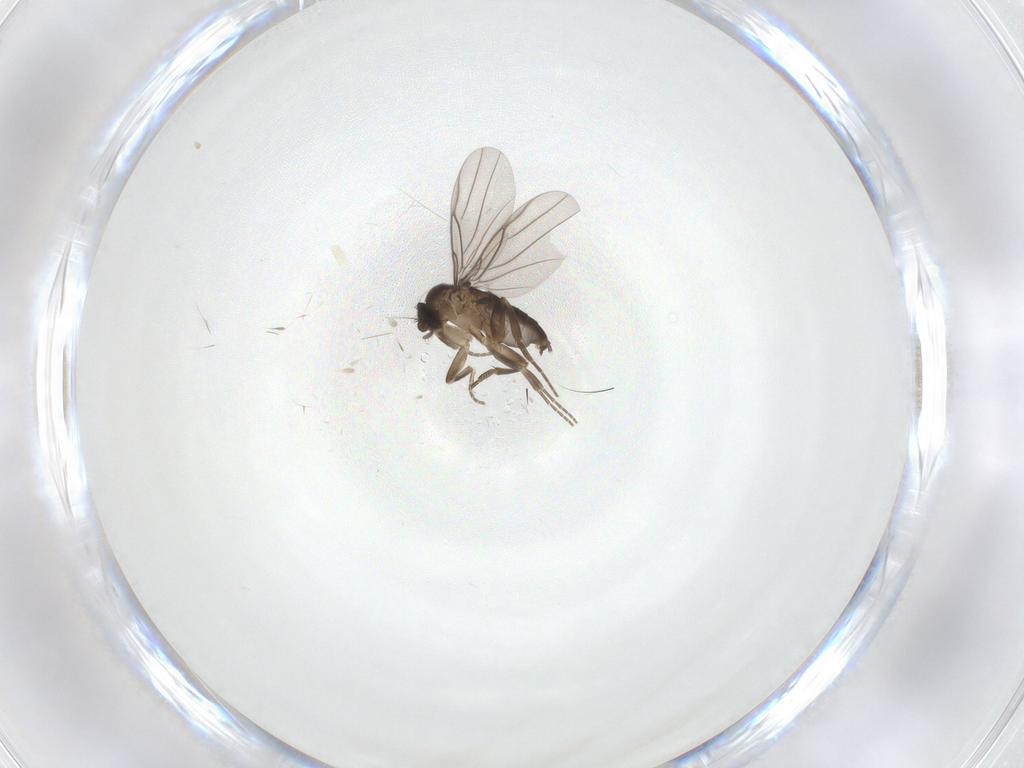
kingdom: Animalia
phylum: Arthropoda
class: Insecta
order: Diptera
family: Phoridae
